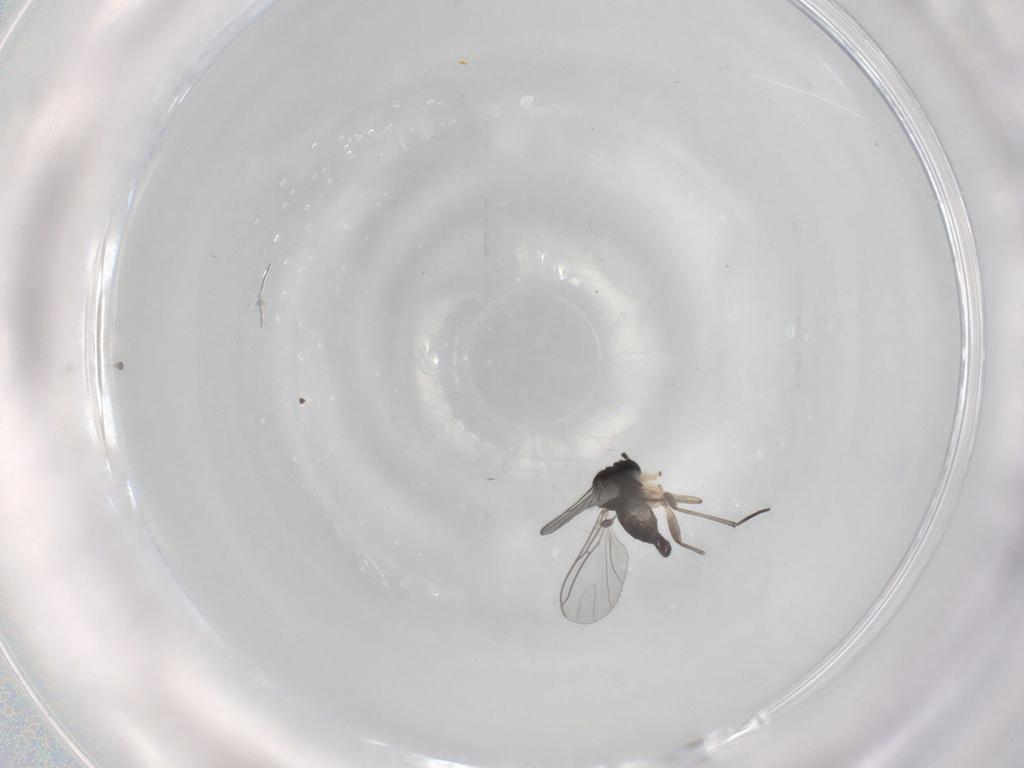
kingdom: Animalia
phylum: Arthropoda
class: Insecta
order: Diptera
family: Sciaridae
